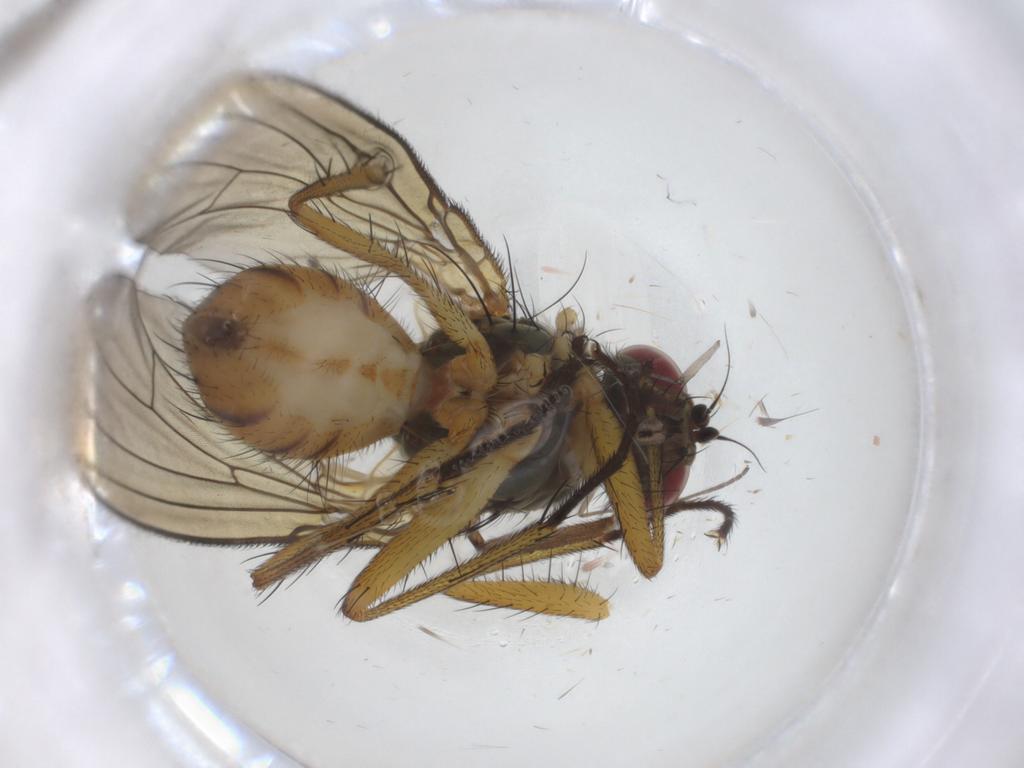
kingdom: Animalia
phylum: Arthropoda
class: Insecta
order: Diptera
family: Muscidae
